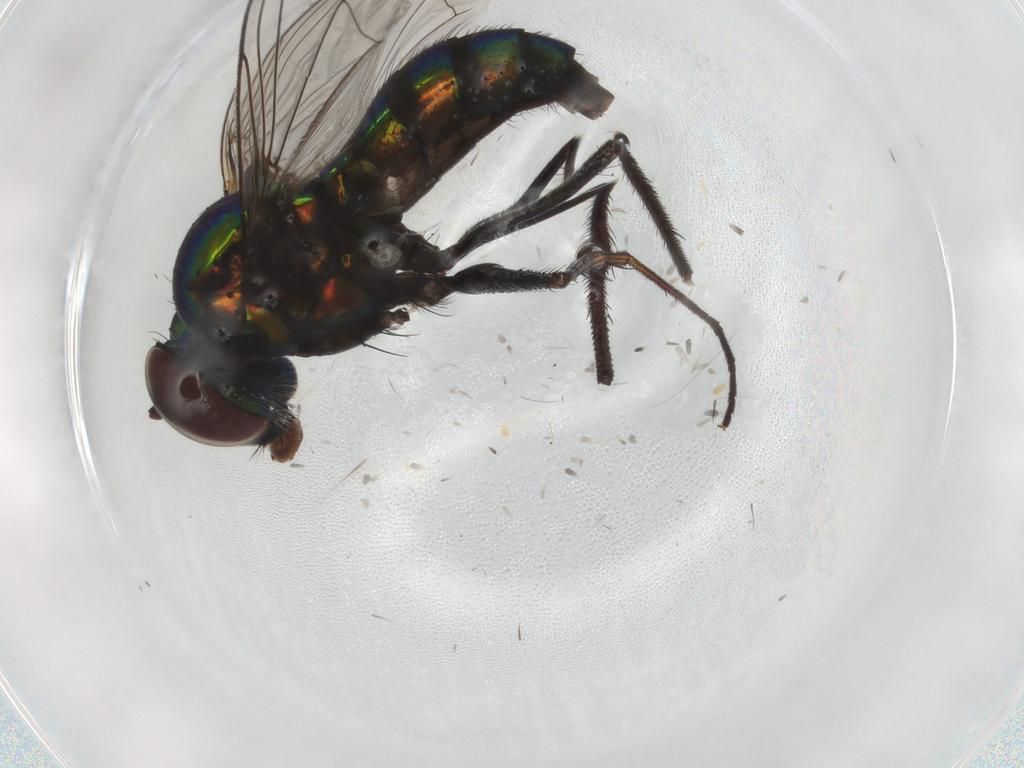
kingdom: Animalia
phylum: Arthropoda
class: Insecta
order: Diptera
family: Dolichopodidae
